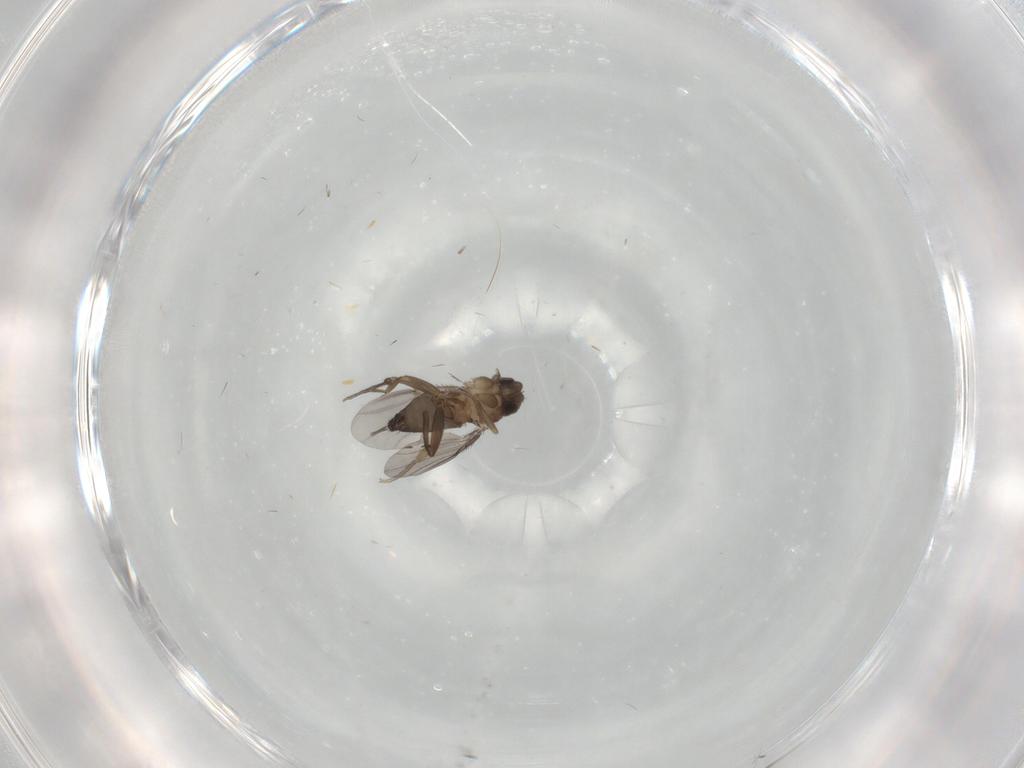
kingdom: Animalia
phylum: Arthropoda
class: Insecta
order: Diptera
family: Phoridae
